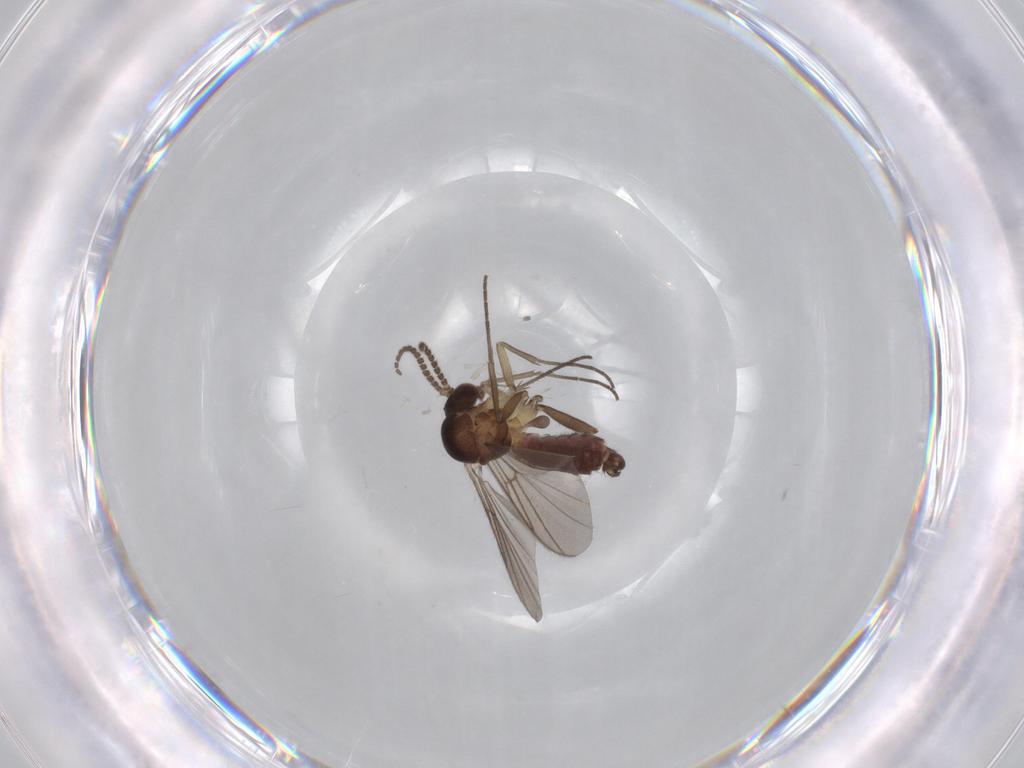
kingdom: Animalia
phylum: Arthropoda
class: Insecta
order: Diptera
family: Mycetophilidae
